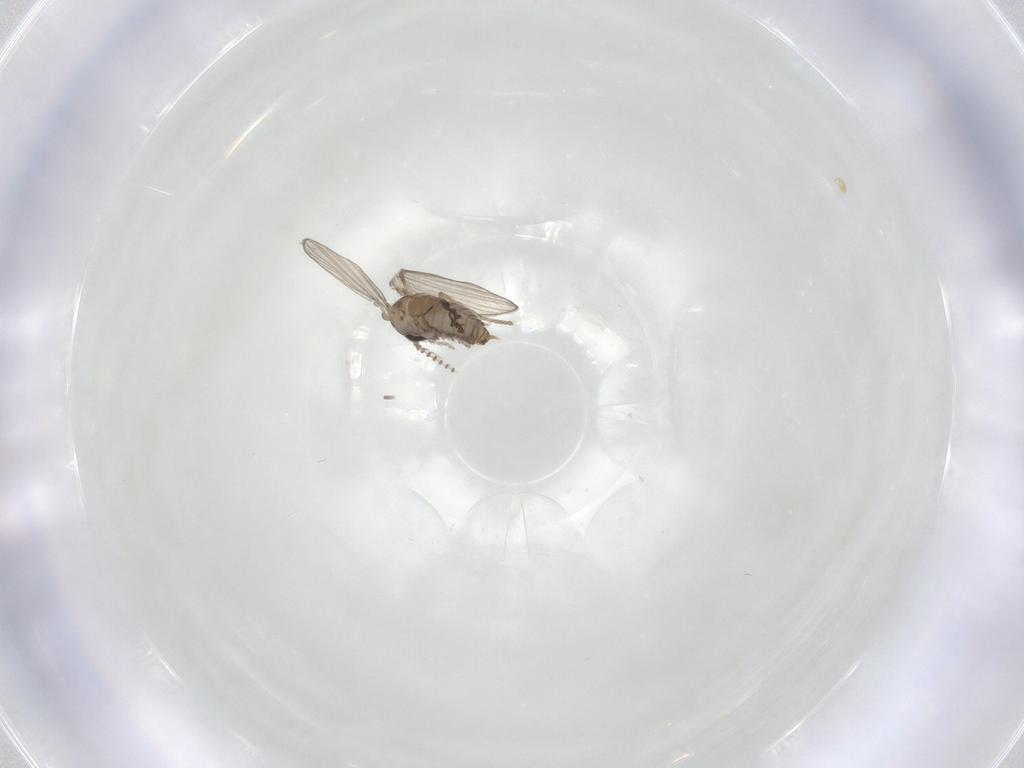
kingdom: Animalia
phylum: Arthropoda
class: Insecta
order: Diptera
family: Psychodidae
